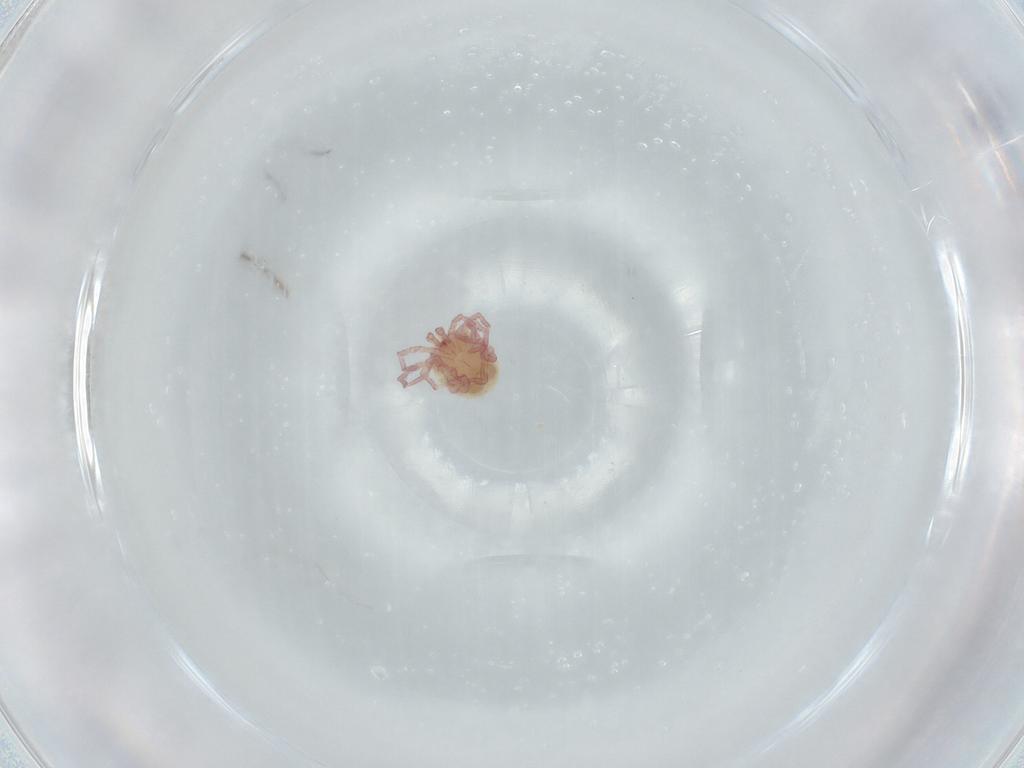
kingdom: Animalia
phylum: Arthropoda
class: Arachnida
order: Trombidiformes
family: Pionidae
